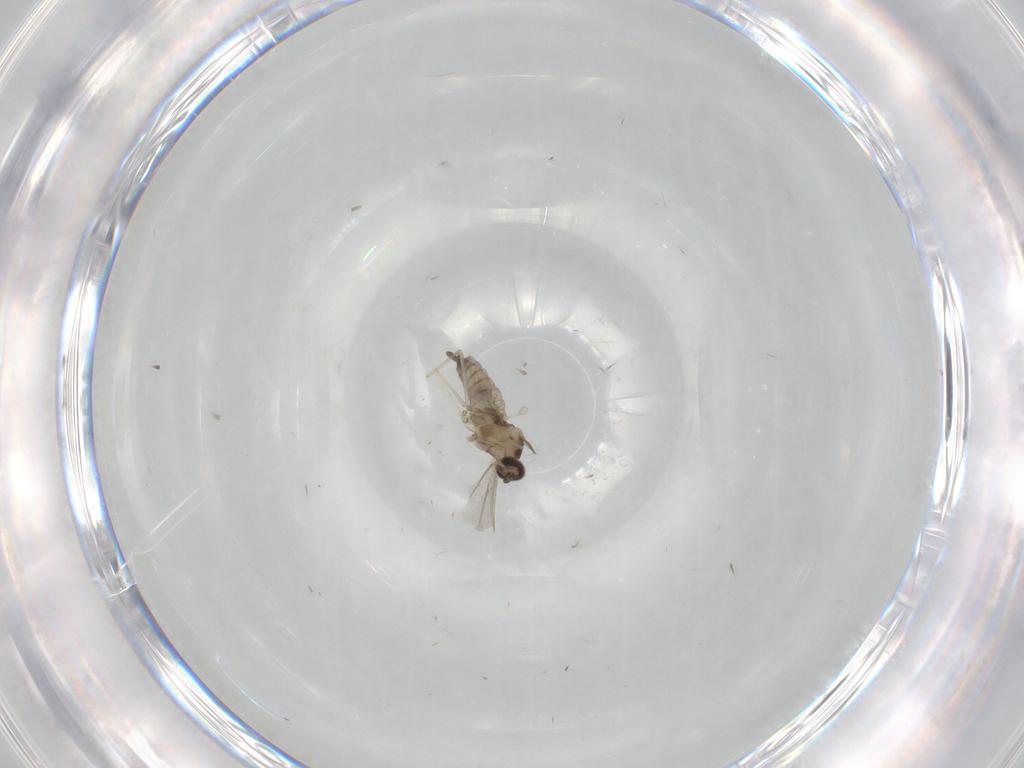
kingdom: Animalia
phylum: Arthropoda
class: Insecta
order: Diptera
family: Cecidomyiidae
